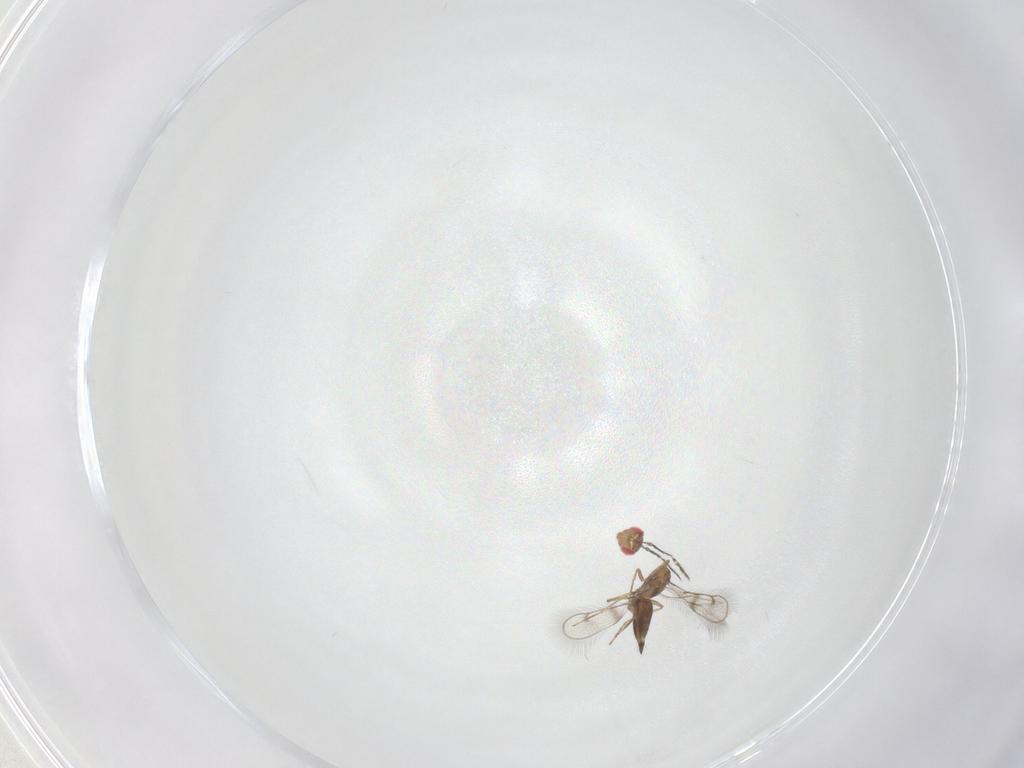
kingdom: Animalia
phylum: Arthropoda
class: Insecta
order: Hymenoptera
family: Eulophidae
